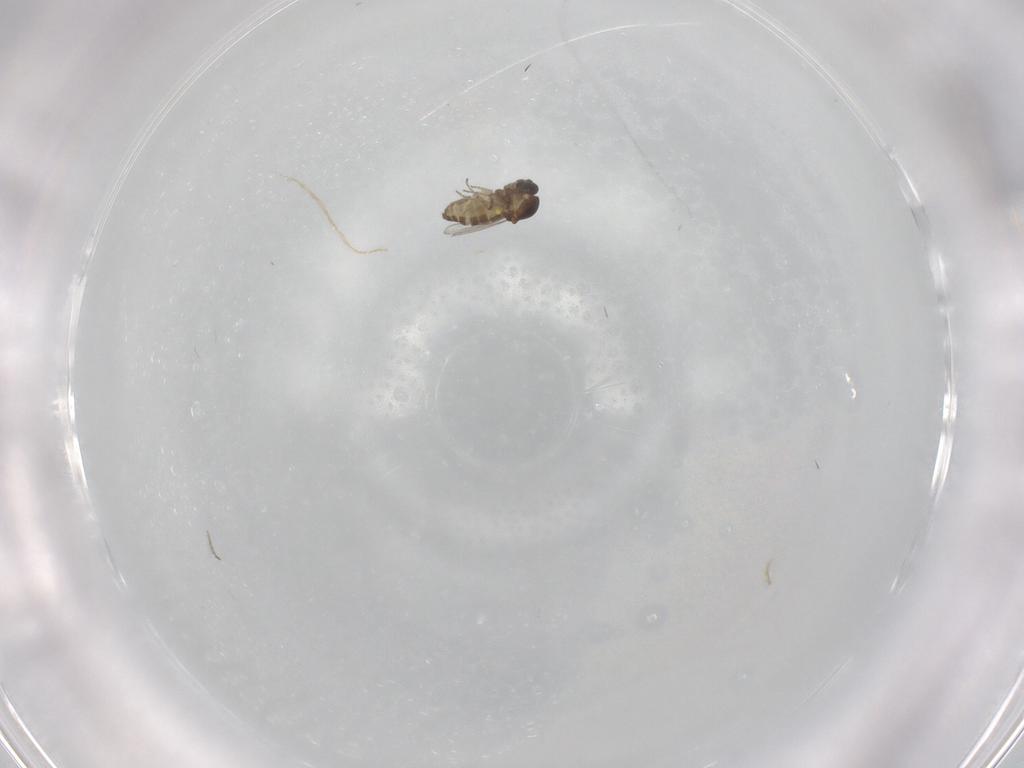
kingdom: Animalia
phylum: Arthropoda
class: Insecta
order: Diptera
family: Ceratopogonidae
